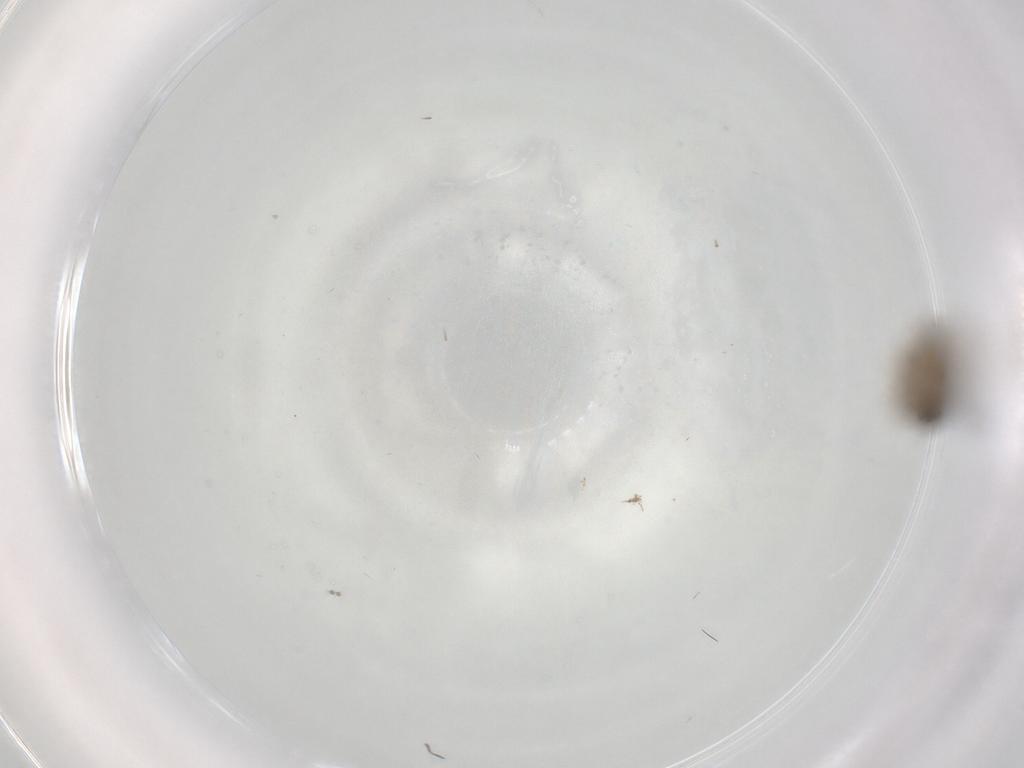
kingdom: Animalia
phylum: Arthropoda
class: Insecta
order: Diptera
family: Psychodidae
